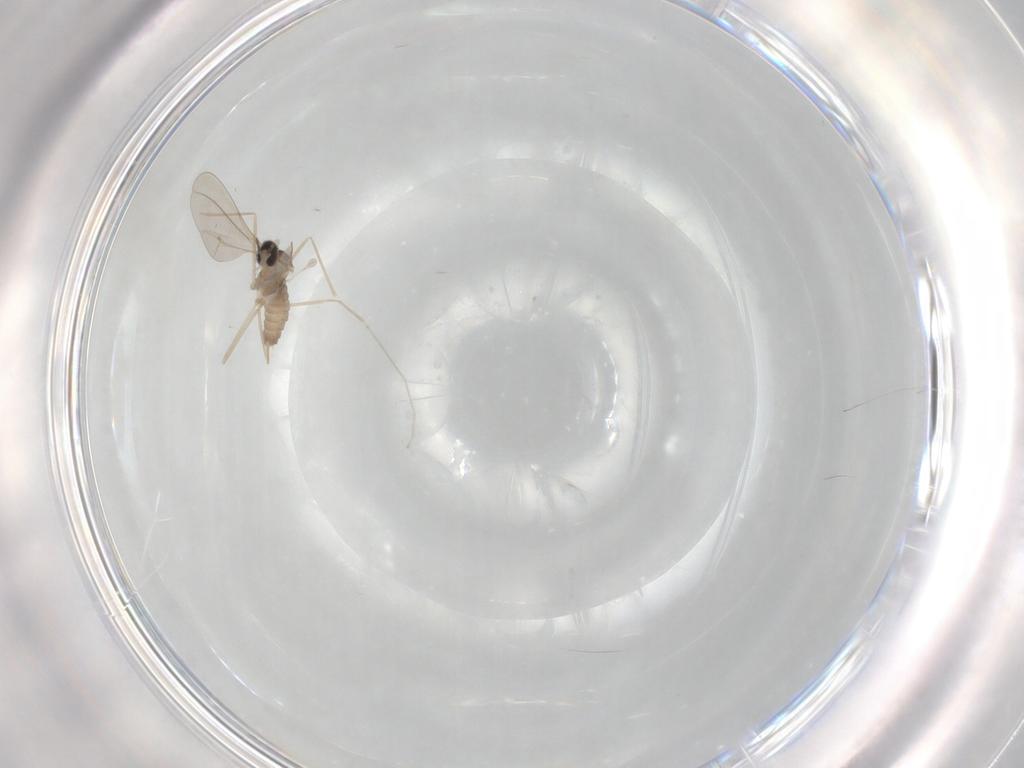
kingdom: Animalia
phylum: Arthropoda
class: Insecta
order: Diptera
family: Cecidomyiidae
